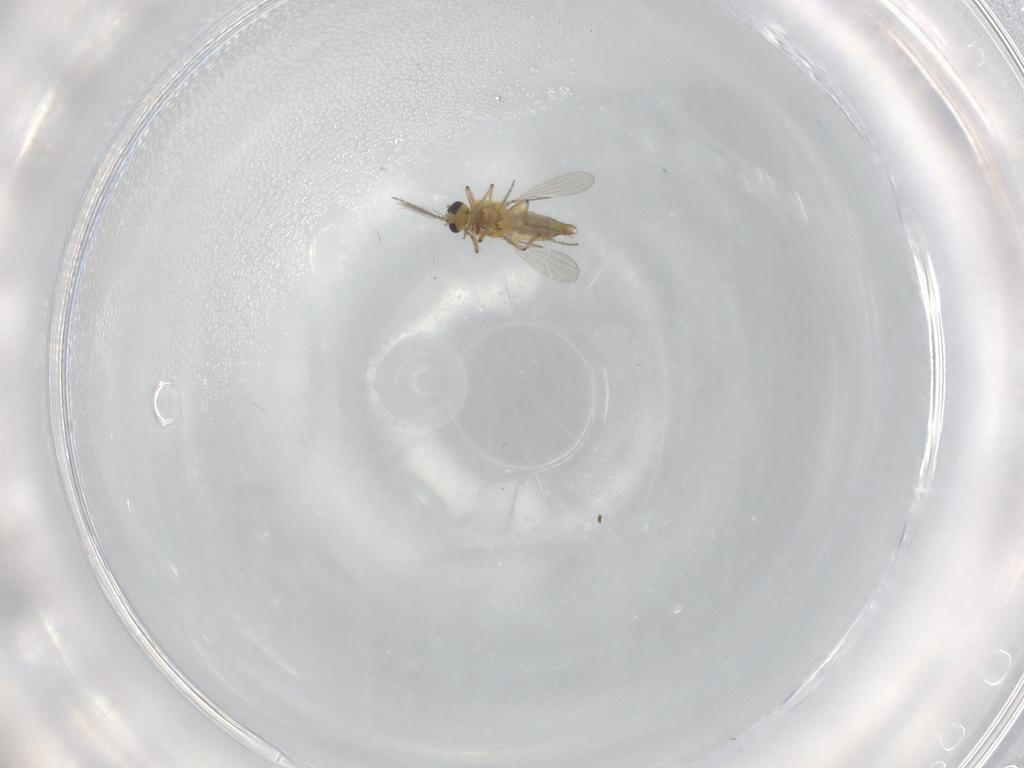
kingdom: Animalia
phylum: Arthropoda
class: Insecta
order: Diptera
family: Ceratopogonidae
